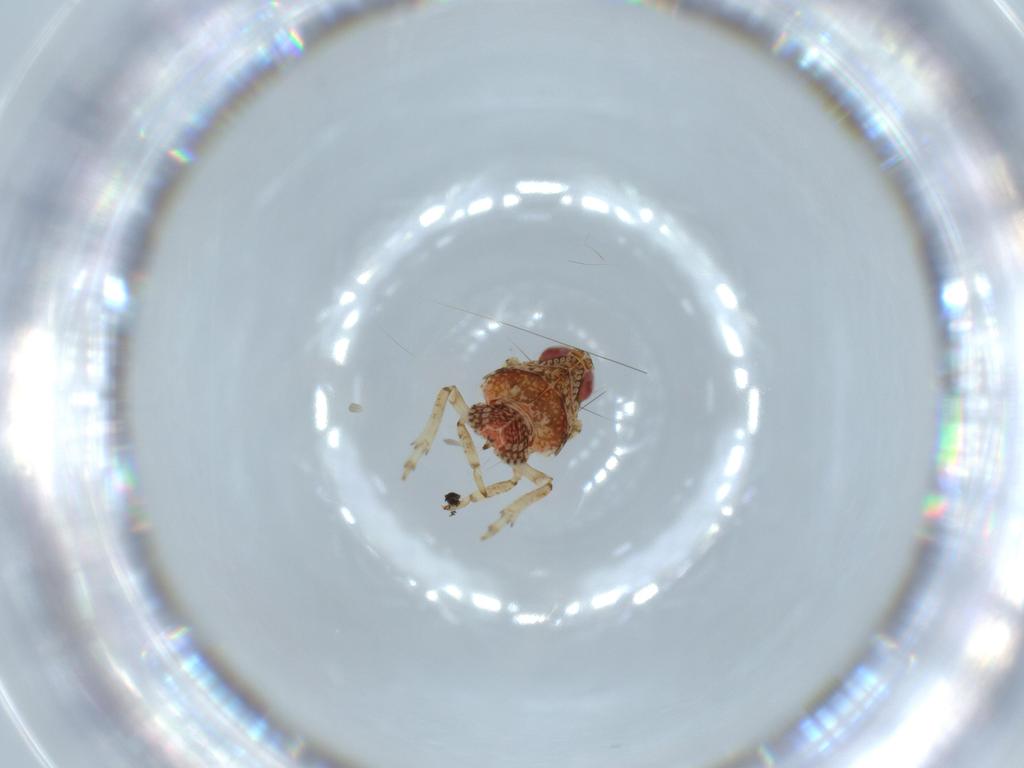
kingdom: Animalia
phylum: Arthropoda
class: Insecta
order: Hemiptera
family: Issidae
